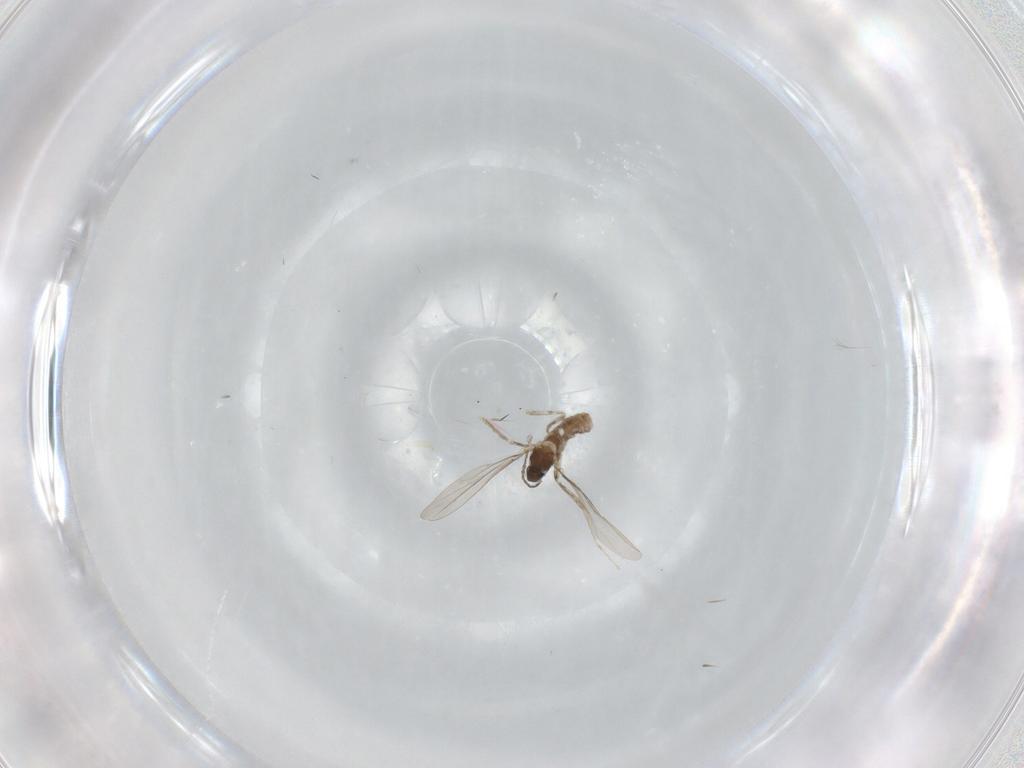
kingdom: Animalia
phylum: Arthropoda
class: Insecta
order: Diptera
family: Cecidomyiidae
